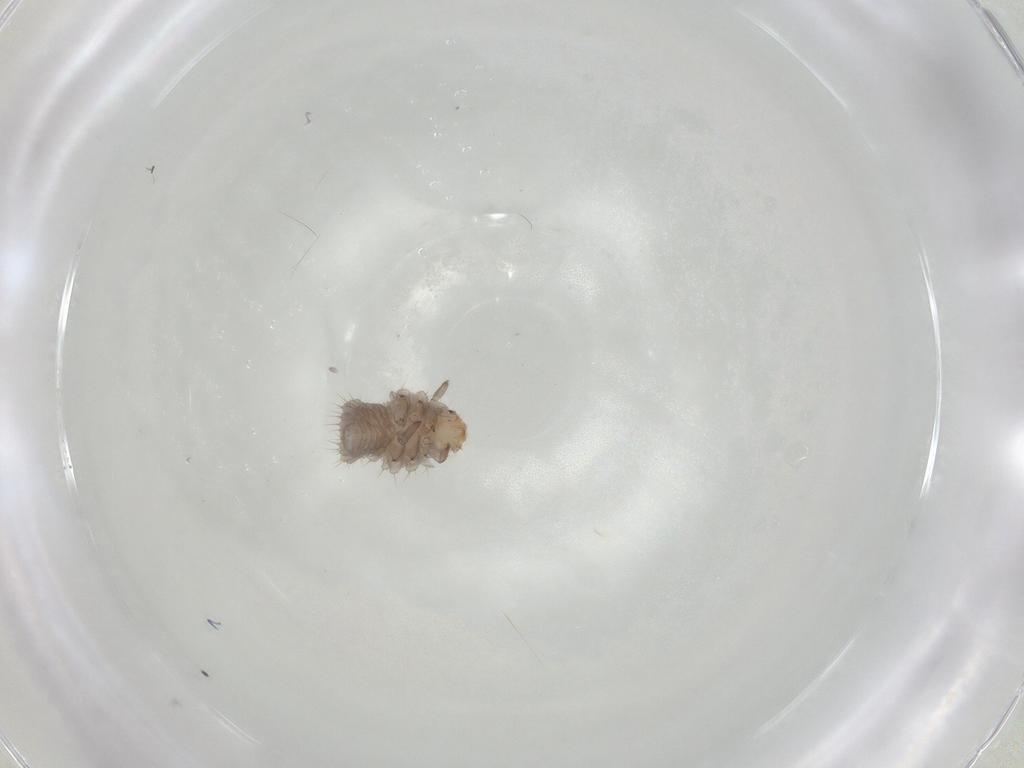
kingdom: Animalia
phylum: Arthropoda
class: Insecta
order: Coleoptera
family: Coccinellidae
